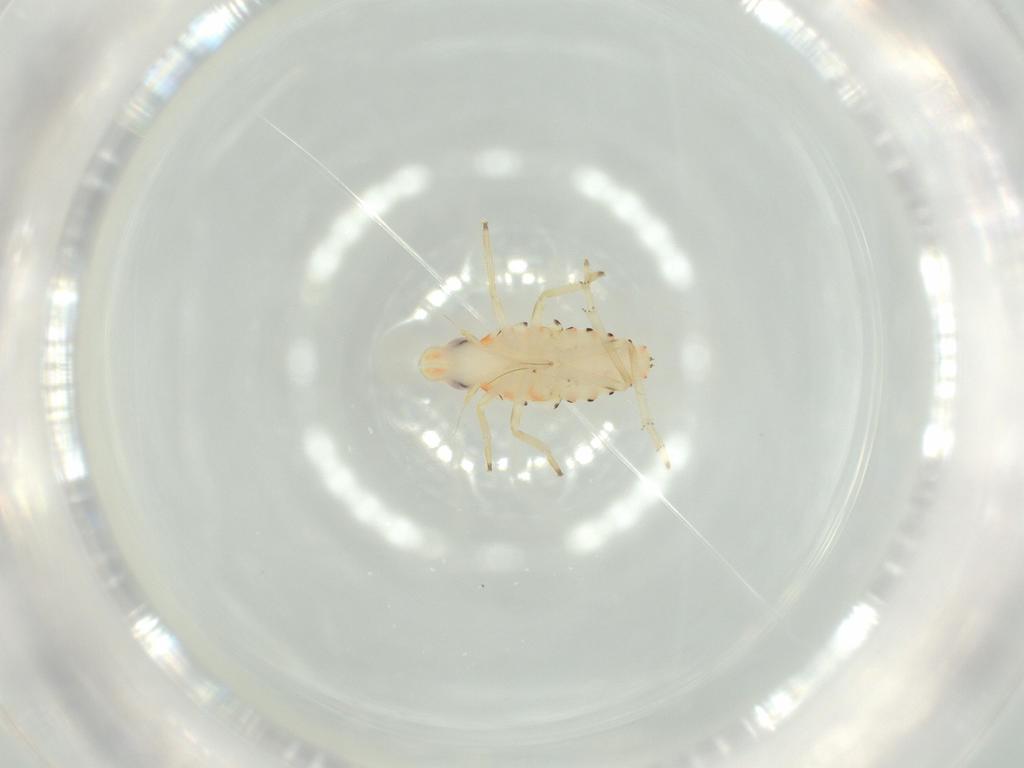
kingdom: Animalia
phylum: Arthropoda
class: Insecta
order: Hemiptera
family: Tropiduchidae
